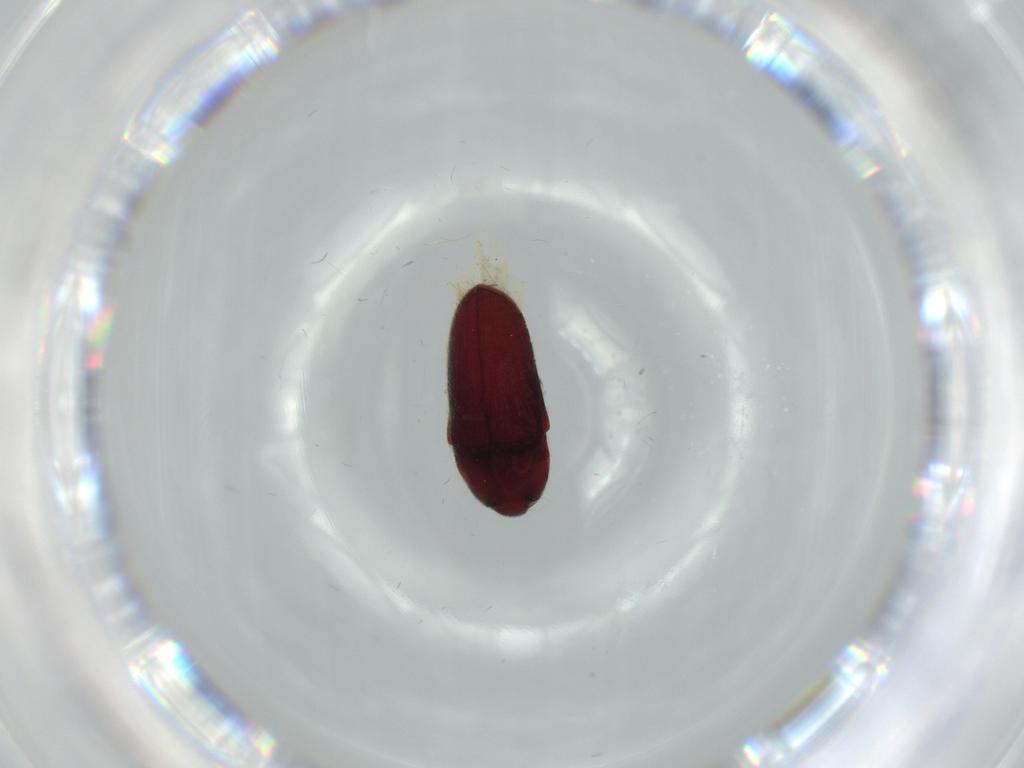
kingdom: Animalia
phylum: Arthropoda
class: Insecta
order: Coleoptera
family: Throscidae
